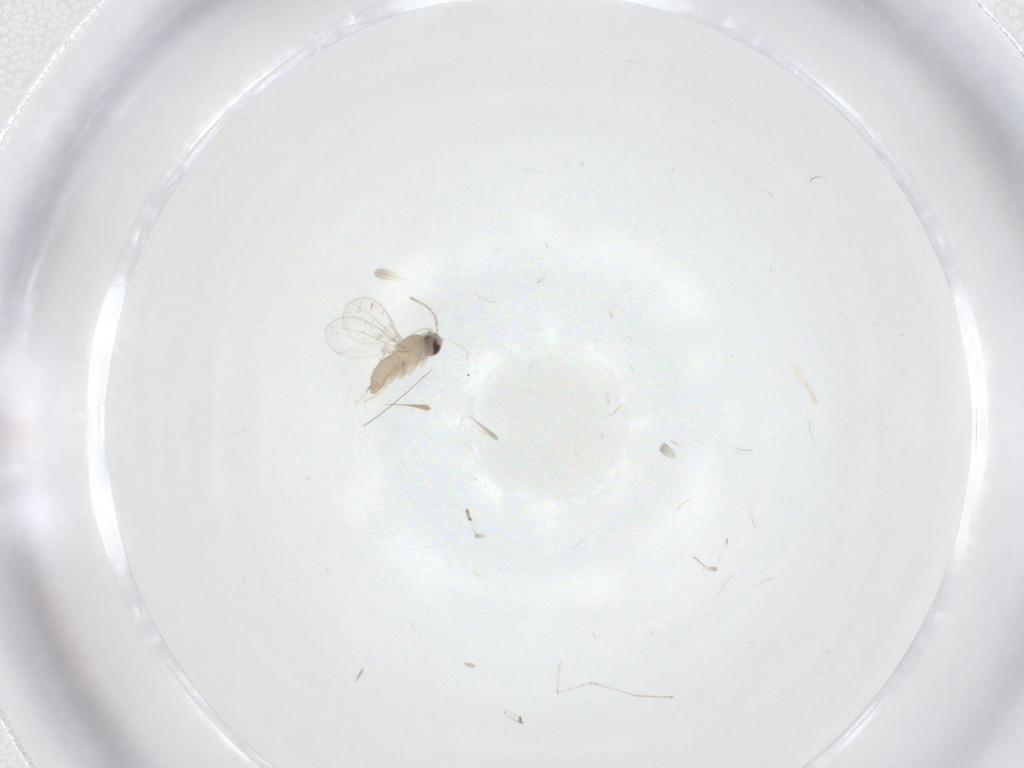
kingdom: Animalia
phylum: Arthropoda
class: Insecta
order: Diptera
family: Cecidomyiidae
